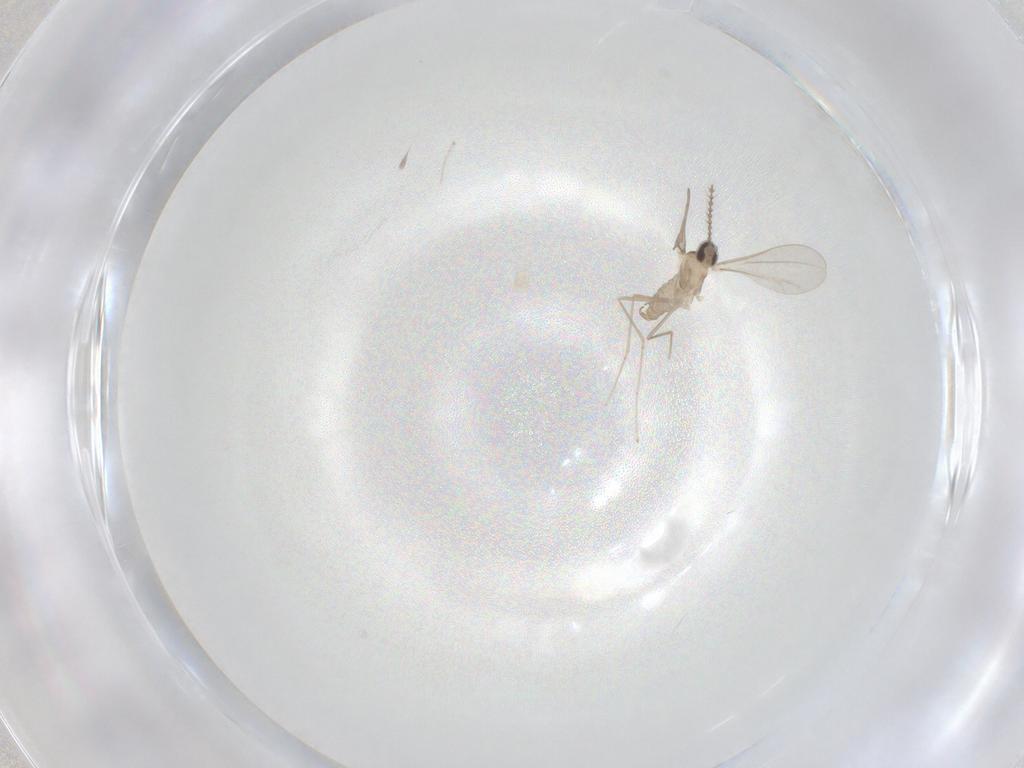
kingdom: Animalia
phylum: Arthropoda
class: Insecta
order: Diptera
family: Cecidomyiidae
